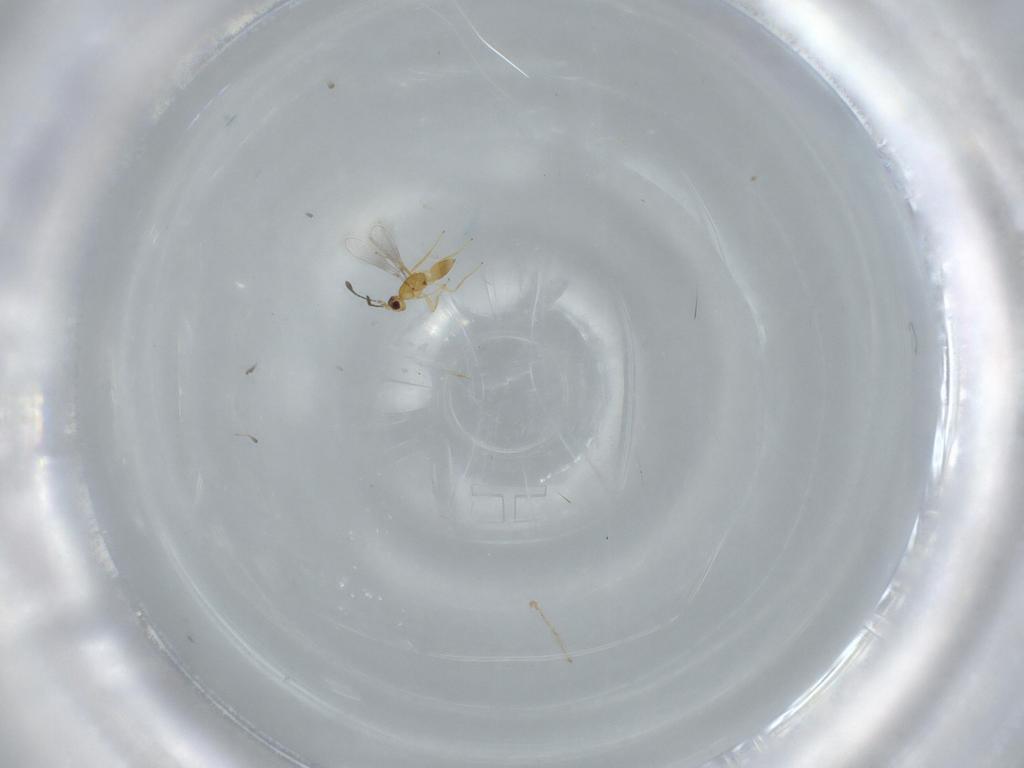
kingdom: Animalia
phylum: Arthropoda
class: Insecta
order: Hymenoptera
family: Mymaridae
